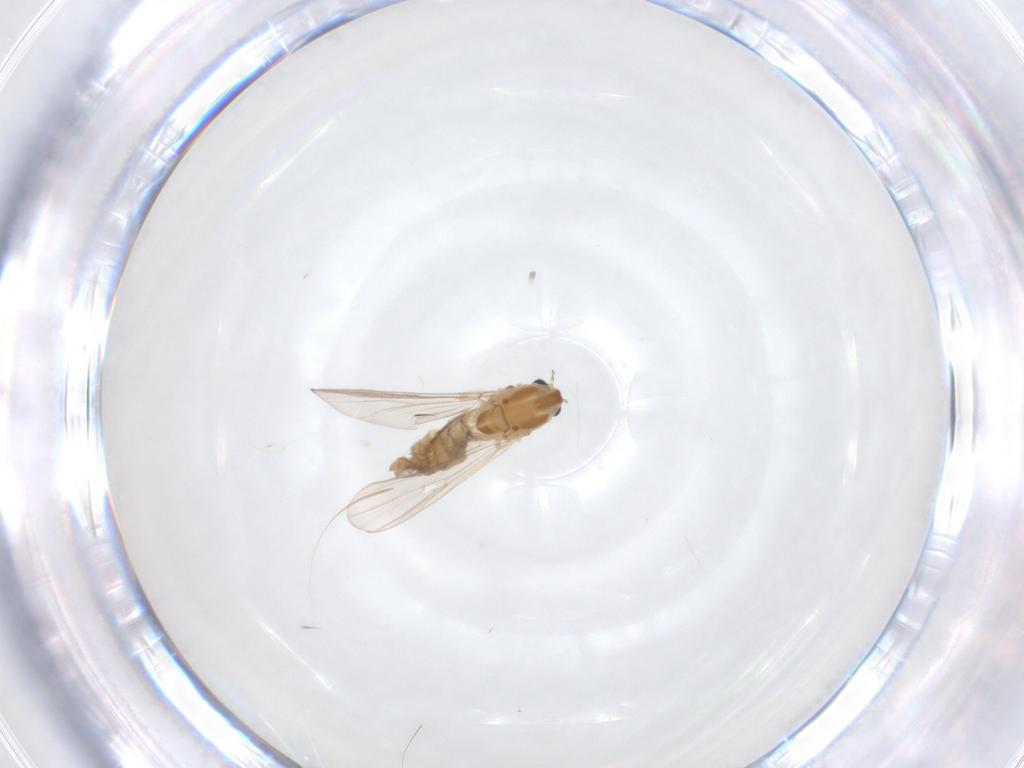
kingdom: Animalia
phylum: Arthropoda
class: Insecta
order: Diptera
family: Chironomidae
